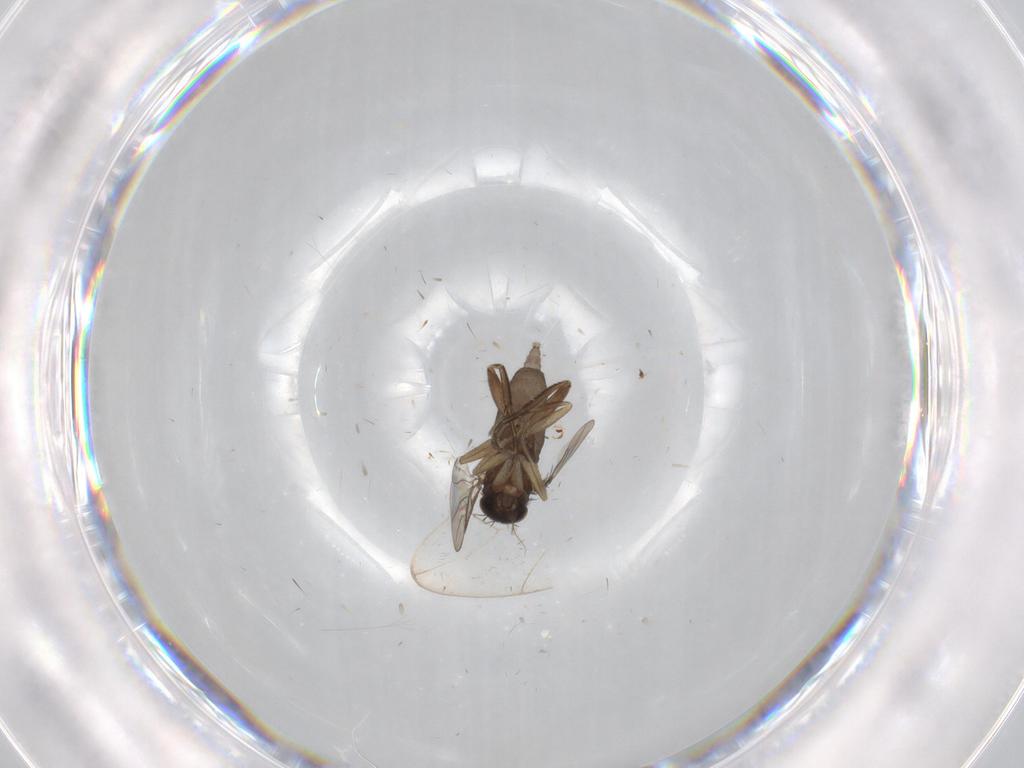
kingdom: Animalia
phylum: Arthropoda
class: Insecta
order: Diptera
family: Cecidomyiidae
